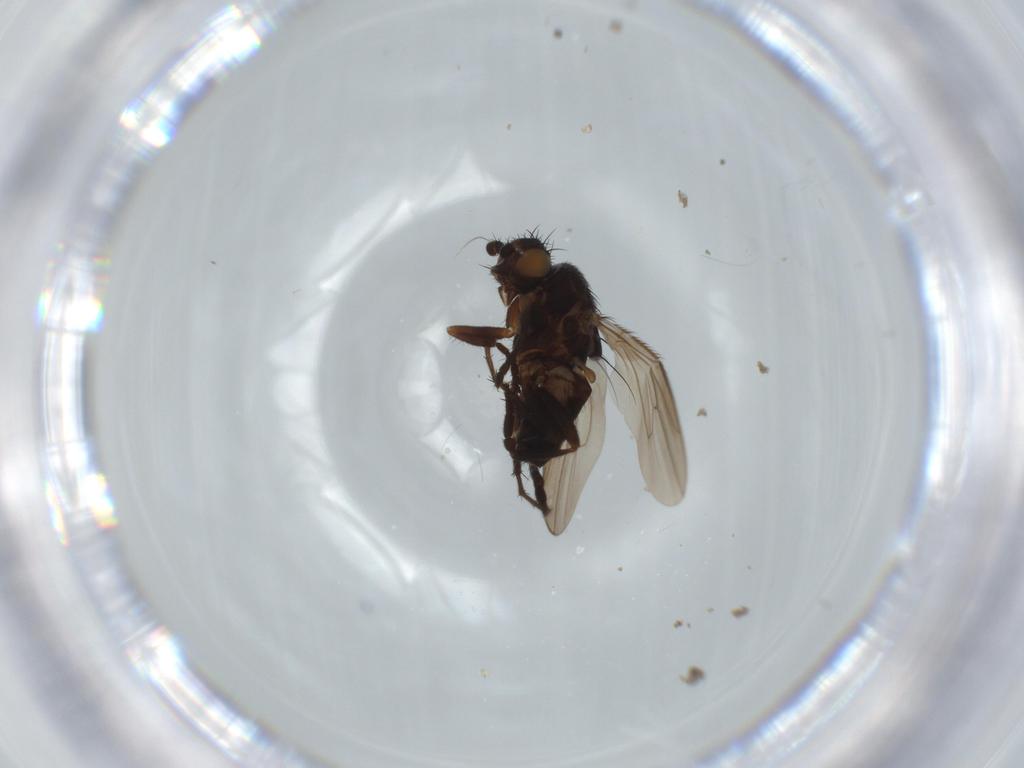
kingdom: Animalia
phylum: Arthropoda
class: Insecta
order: Diptera
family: Sphaeroceridae
